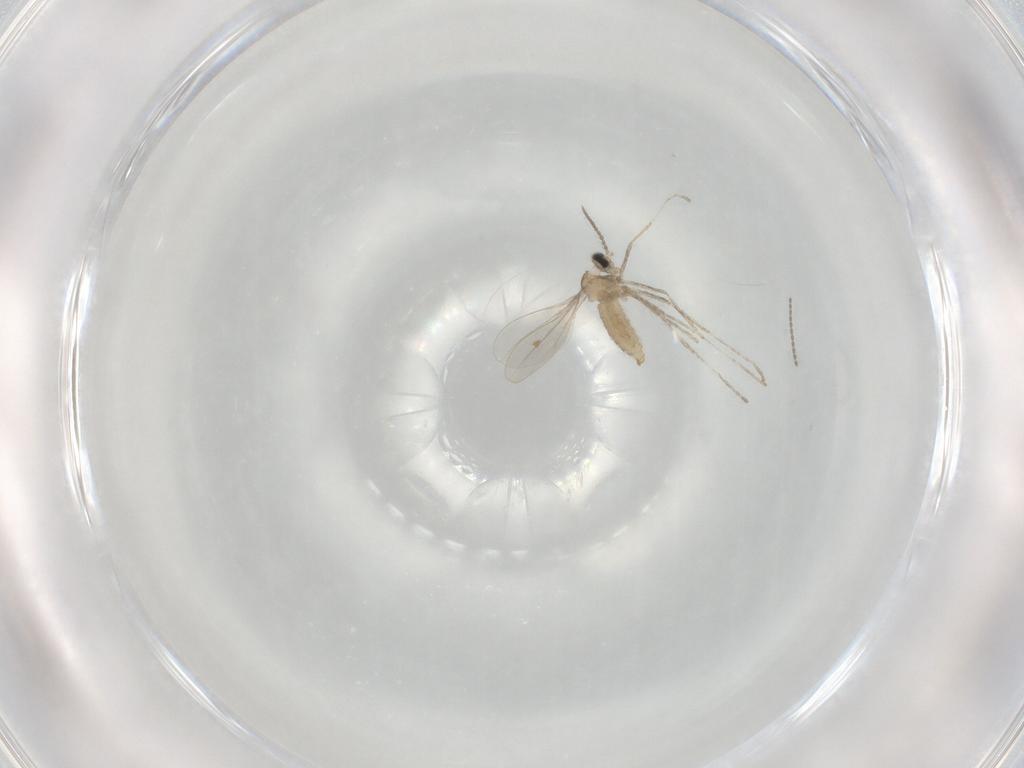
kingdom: Animalia
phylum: Arthropoda
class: Insecta
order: Diptera
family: Cecidomyiidae
